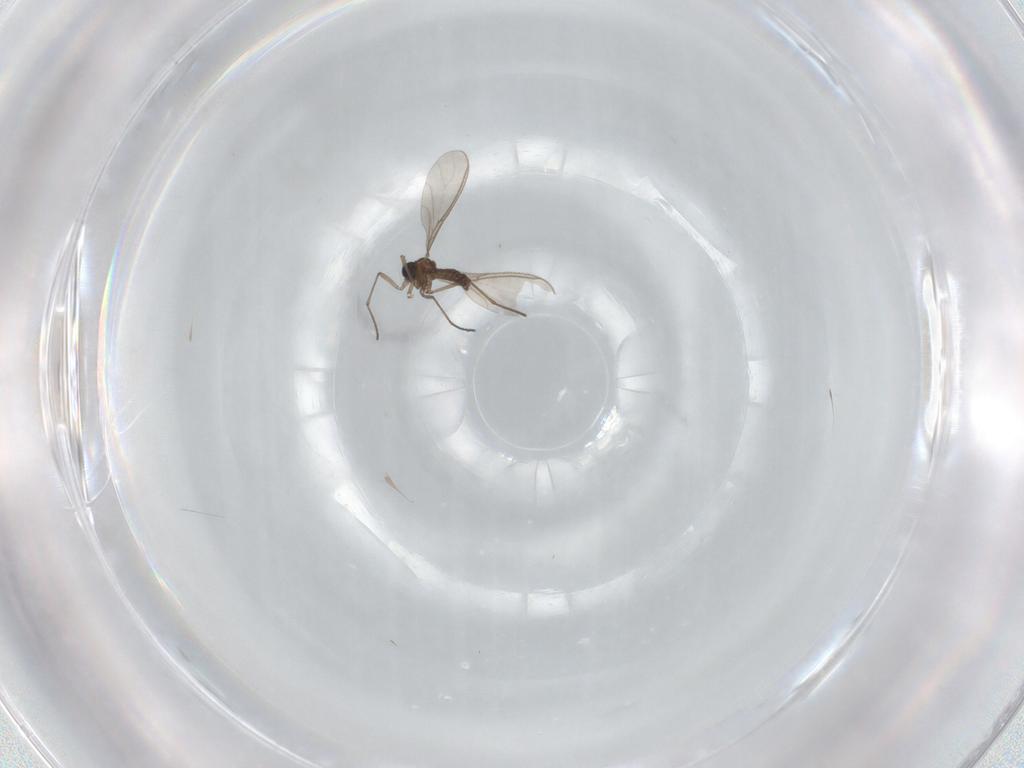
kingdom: Animalia
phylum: Arthropoda
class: Insecta
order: Diptera
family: Sciaridae
